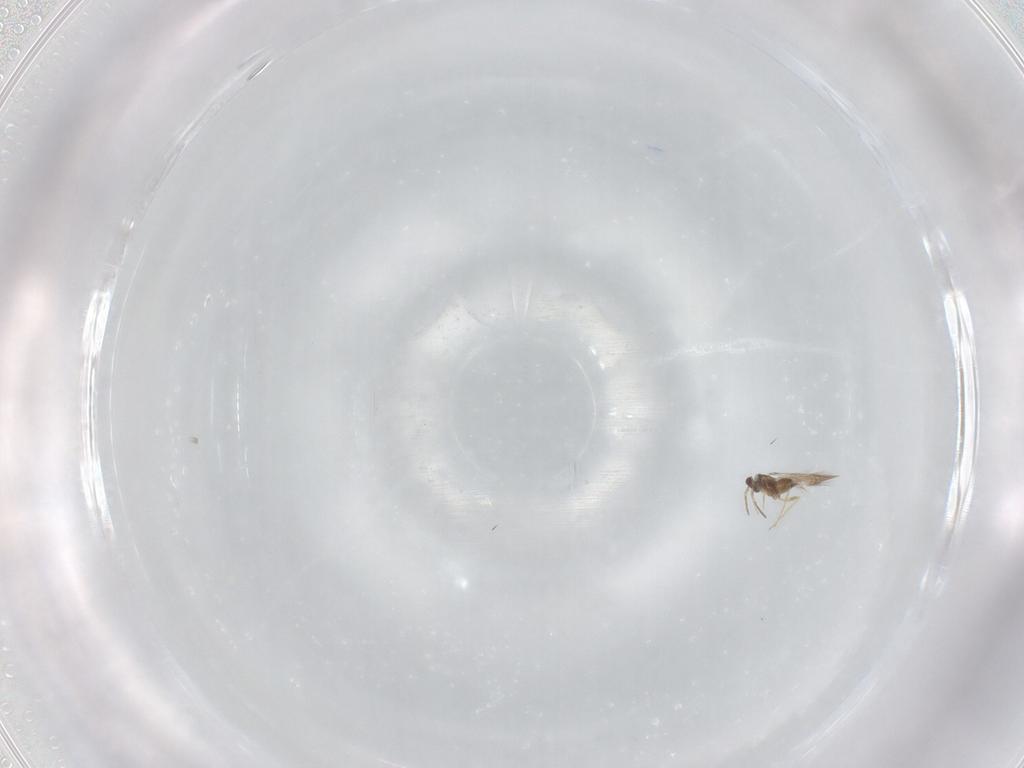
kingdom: Animalia
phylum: Arthropoda
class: Insecta
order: Hymenoptera
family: Mymaridae
